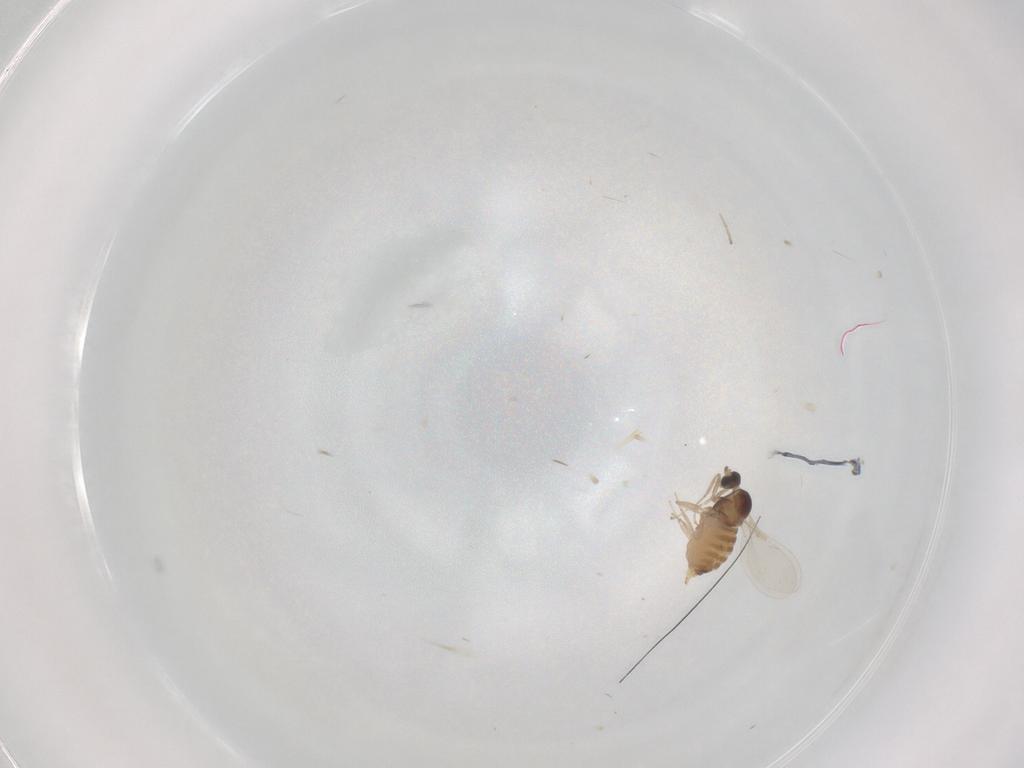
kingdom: Animalia
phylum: Arthropoda
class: Insecta
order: Diptera
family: Cecidomyiidae
